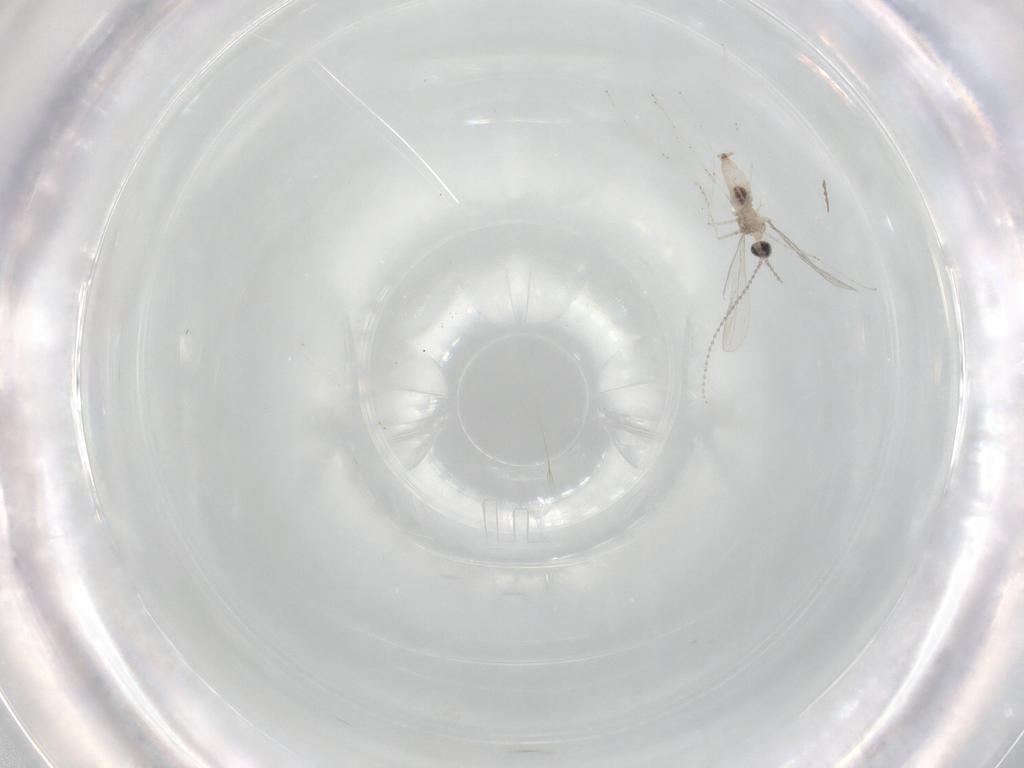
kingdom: Animalia
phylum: Arthropoda
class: Insecta
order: Diptera
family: Cecidomyiidae
